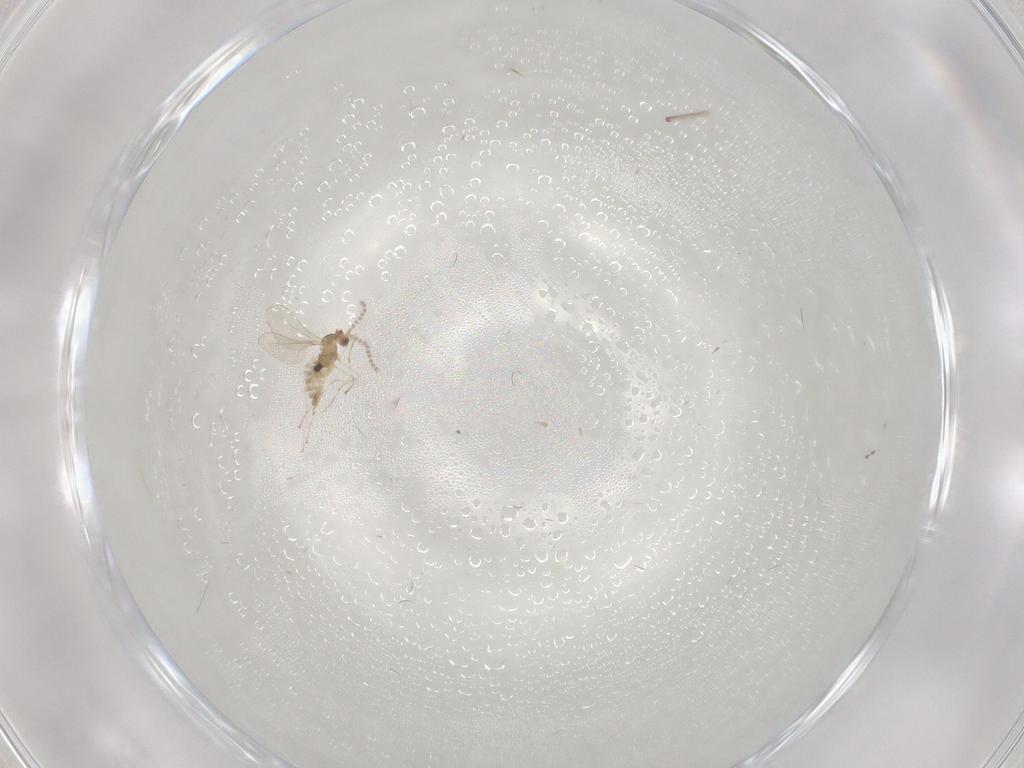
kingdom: Animalia
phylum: Arthropoda
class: Insecta
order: Diptera
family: Cecidomyiidae
